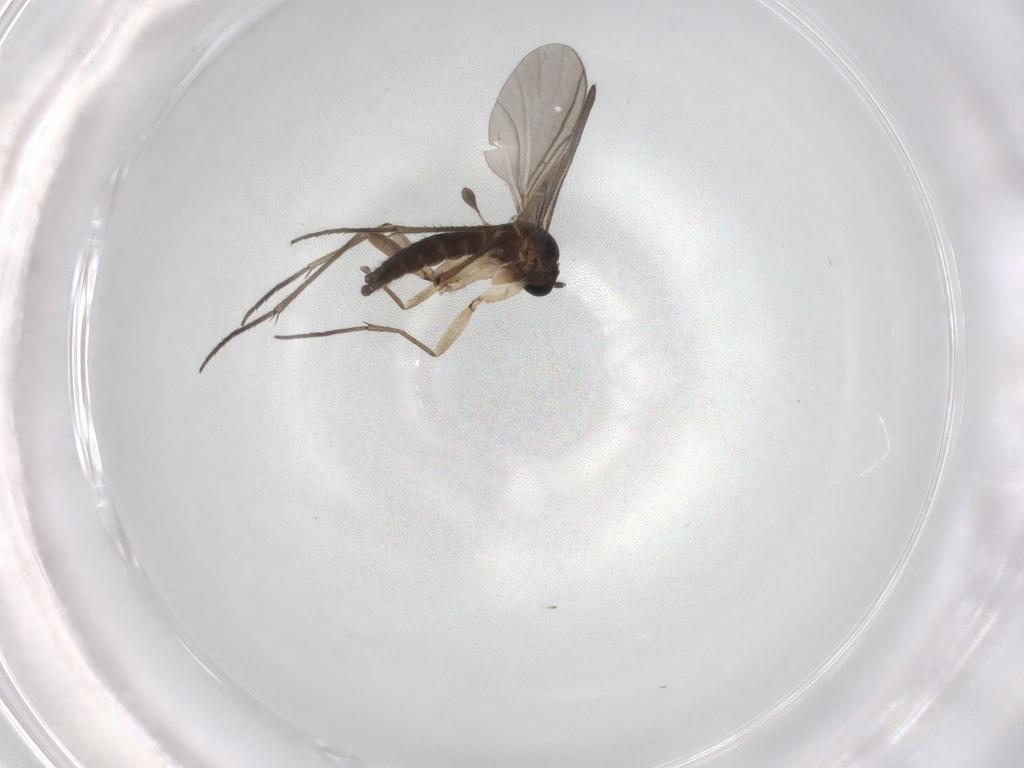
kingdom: Animalia
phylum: Arthropoda
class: Insecta
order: Diptera
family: Sciaridae
